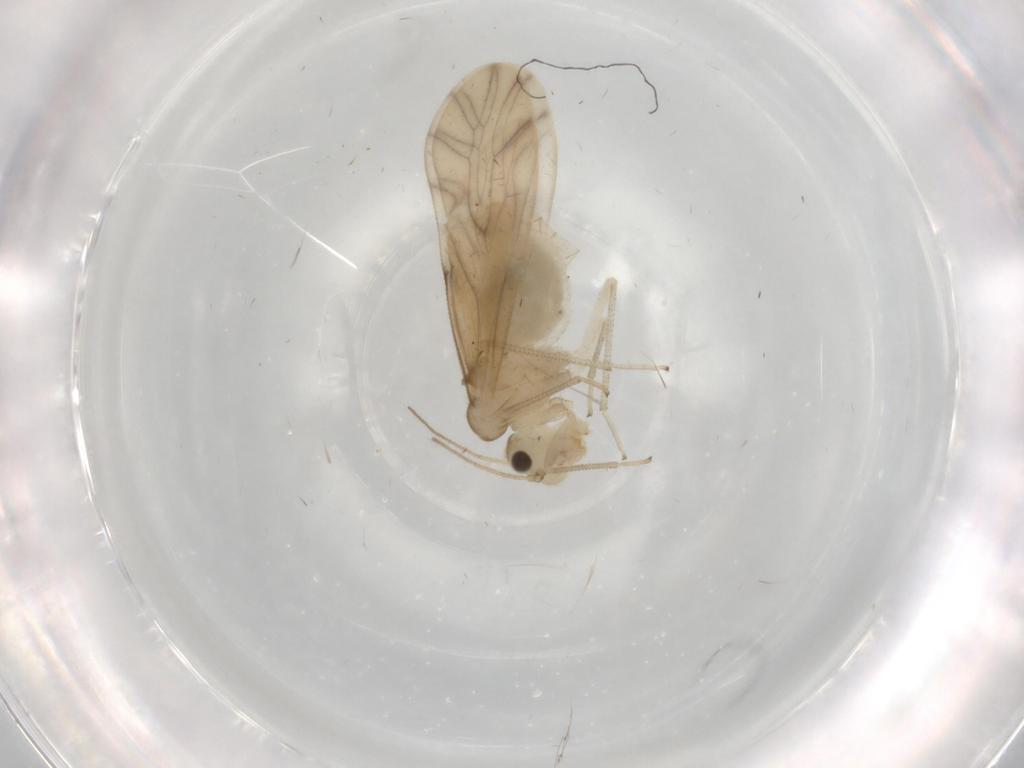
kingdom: Animalia
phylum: Arthropoda
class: Insecta
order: Psocodea
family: Caeciliusidae
